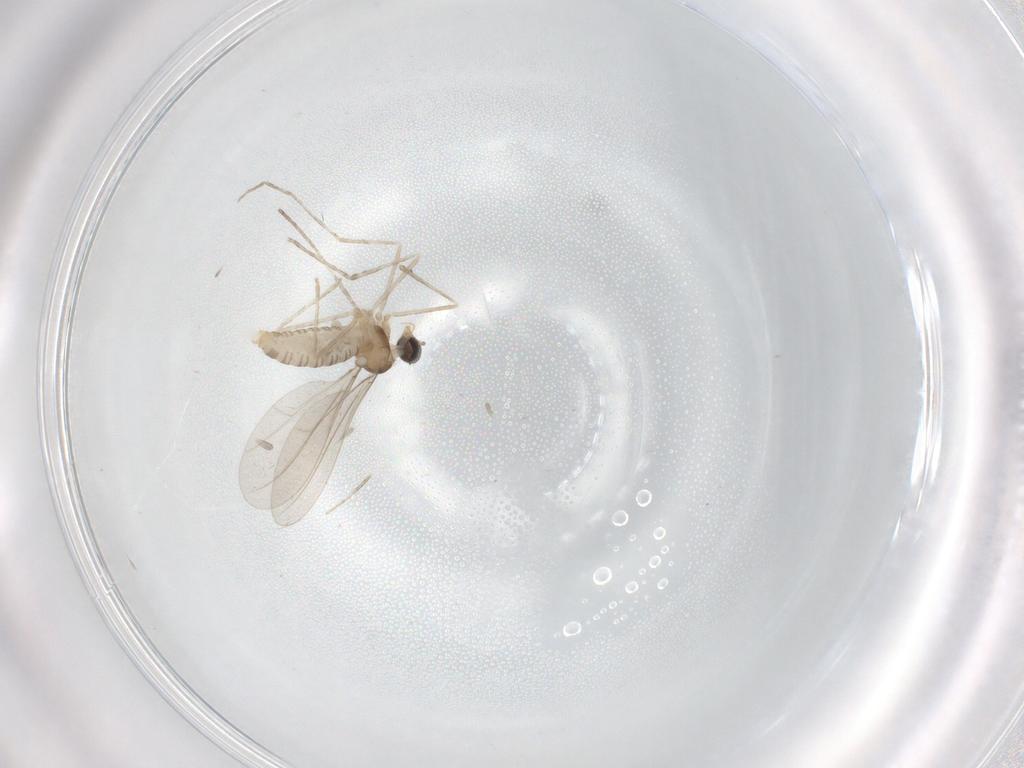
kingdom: Animalia
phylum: Arthropoda
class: Insecta
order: Diptera
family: Cecidomyiidae
